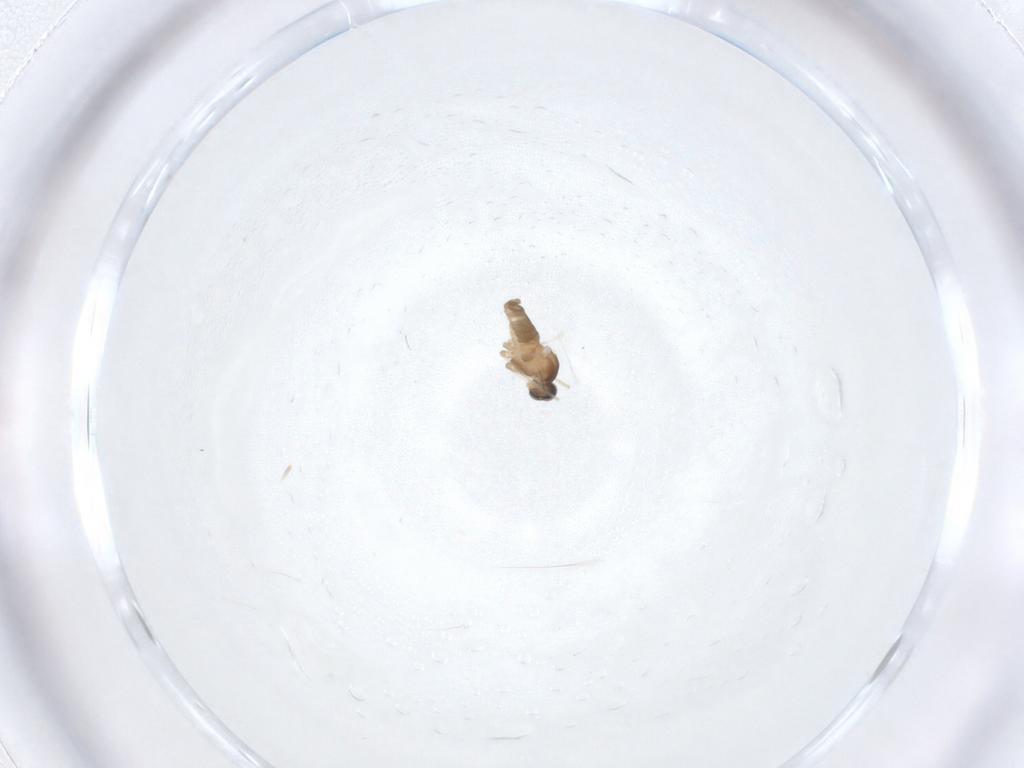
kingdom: Animalia
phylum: Arthropoda
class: Insecta
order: Diptera
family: Cecidomyiidae
